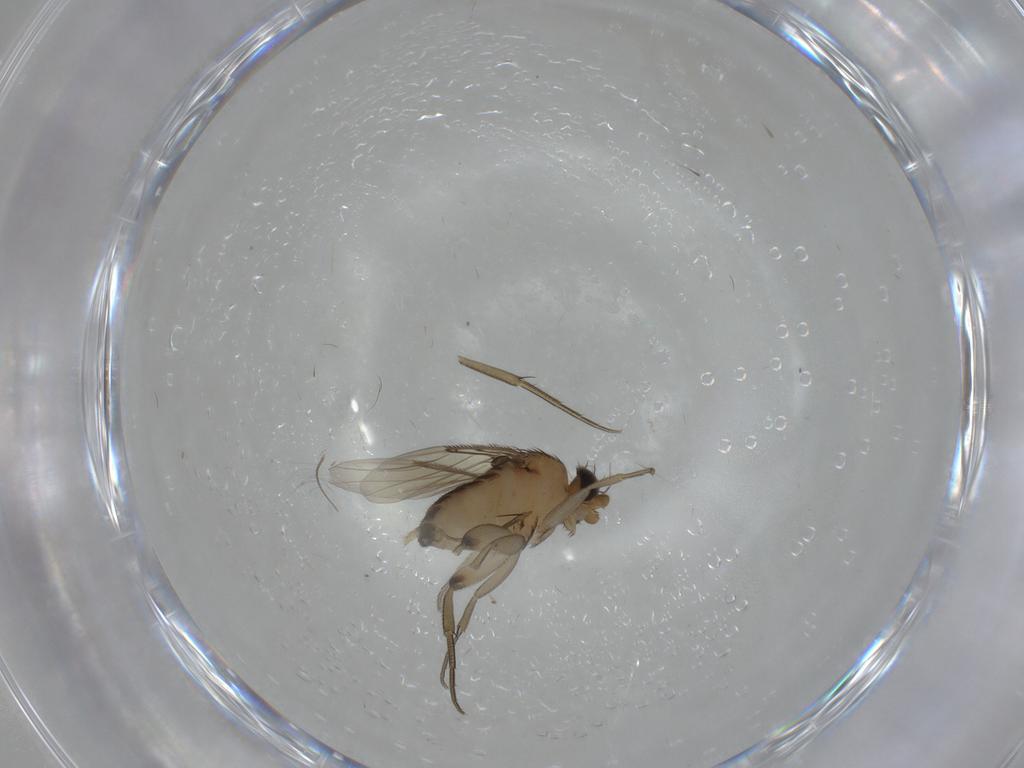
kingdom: Animalia
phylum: Arthropoda
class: Insecta
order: Diptera
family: Phoridae
